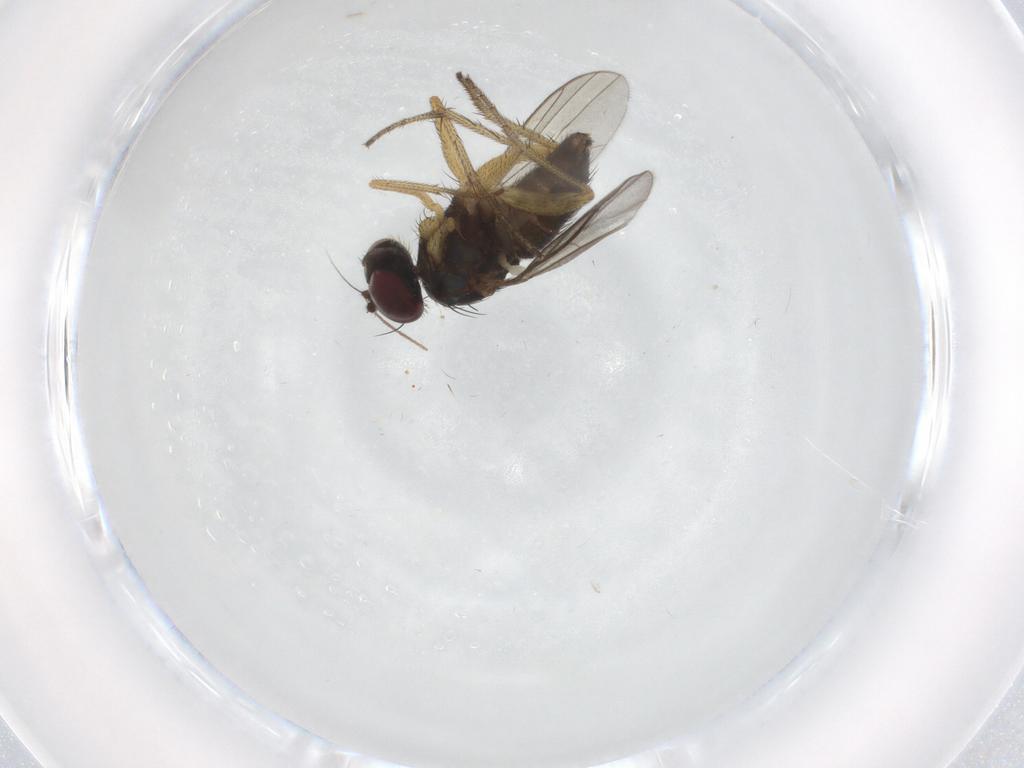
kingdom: Animalia
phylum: Arthropoda
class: Insecta
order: Diptera
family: Dolichopodidae
